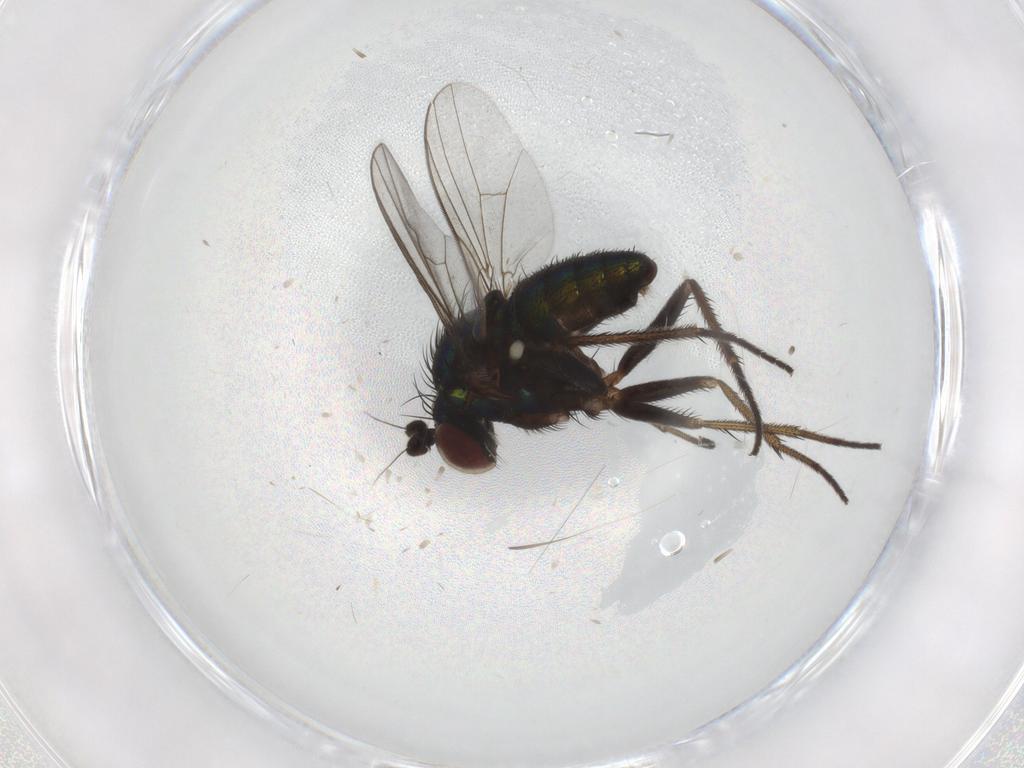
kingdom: Animalia
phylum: Arthropoda
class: Insecta
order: Diptera
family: Dolichopodidae
